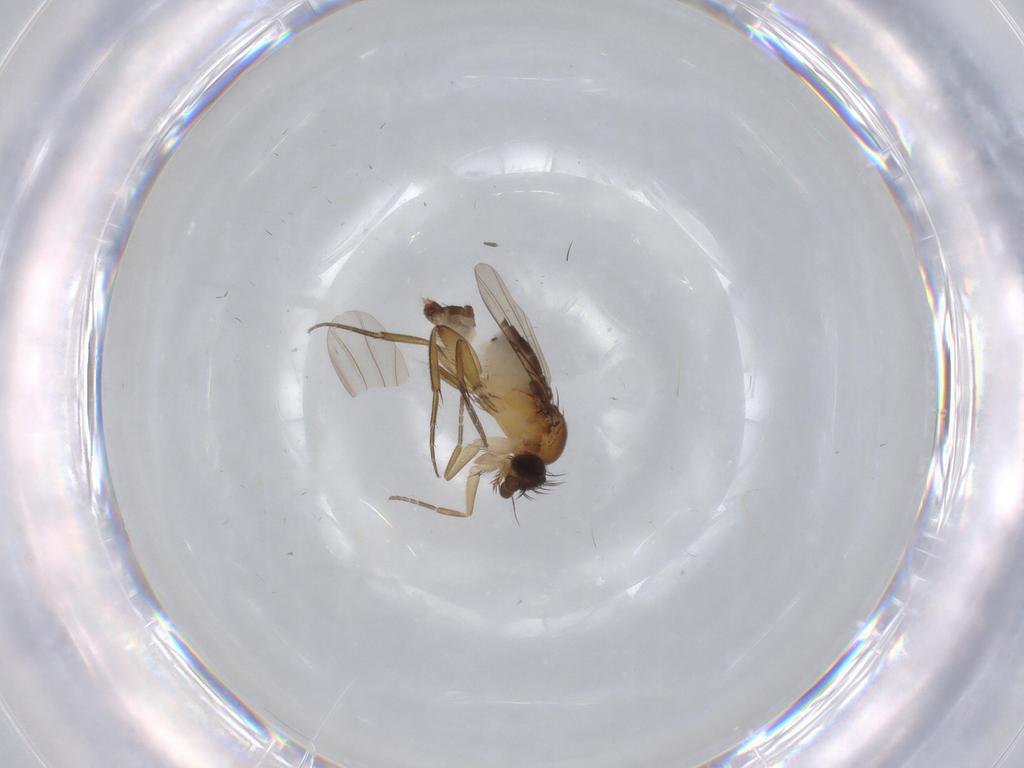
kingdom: Animalia
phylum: Arthropoda
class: Insecta
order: Diptera
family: Phoridae
